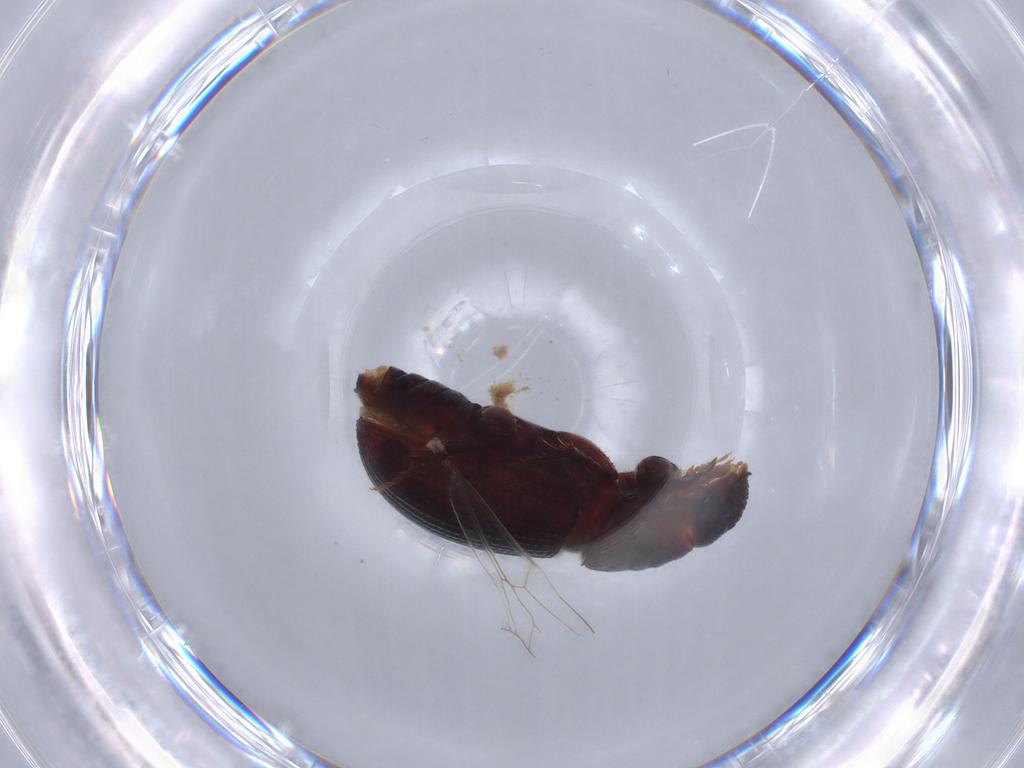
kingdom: Animalia
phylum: Arthropoda
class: Insecta
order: Coleoptera
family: Scarabaeidae
